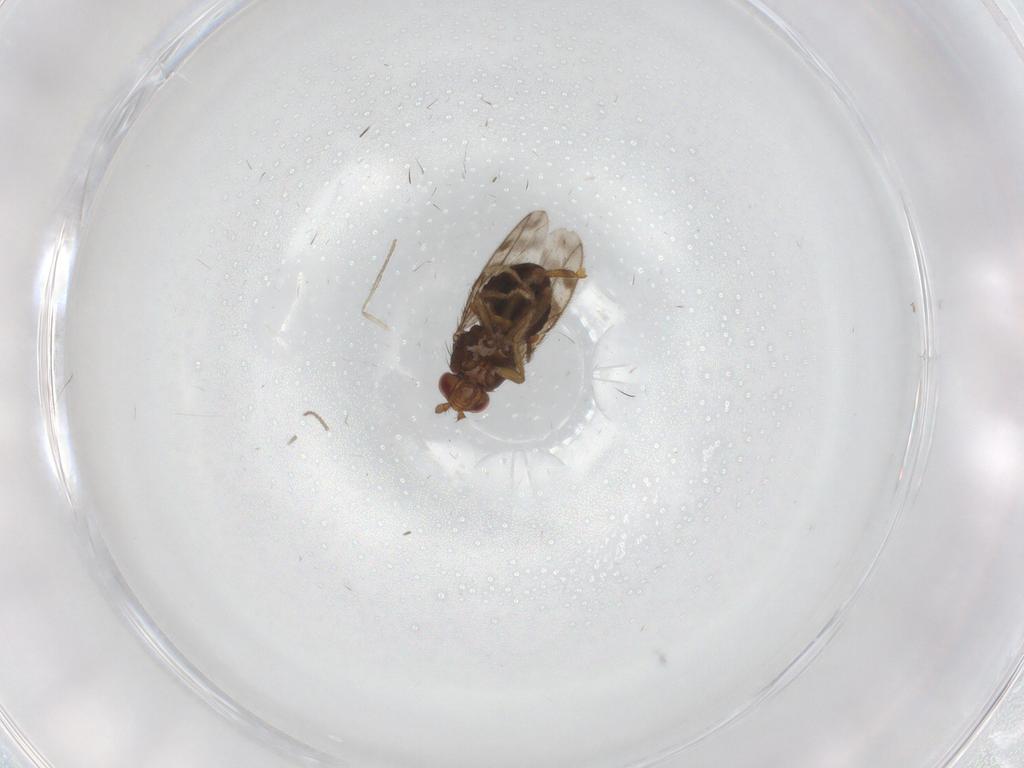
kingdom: Animalia
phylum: Arthropoda
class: Insecta
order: Diptera
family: Sphaeroceridae
